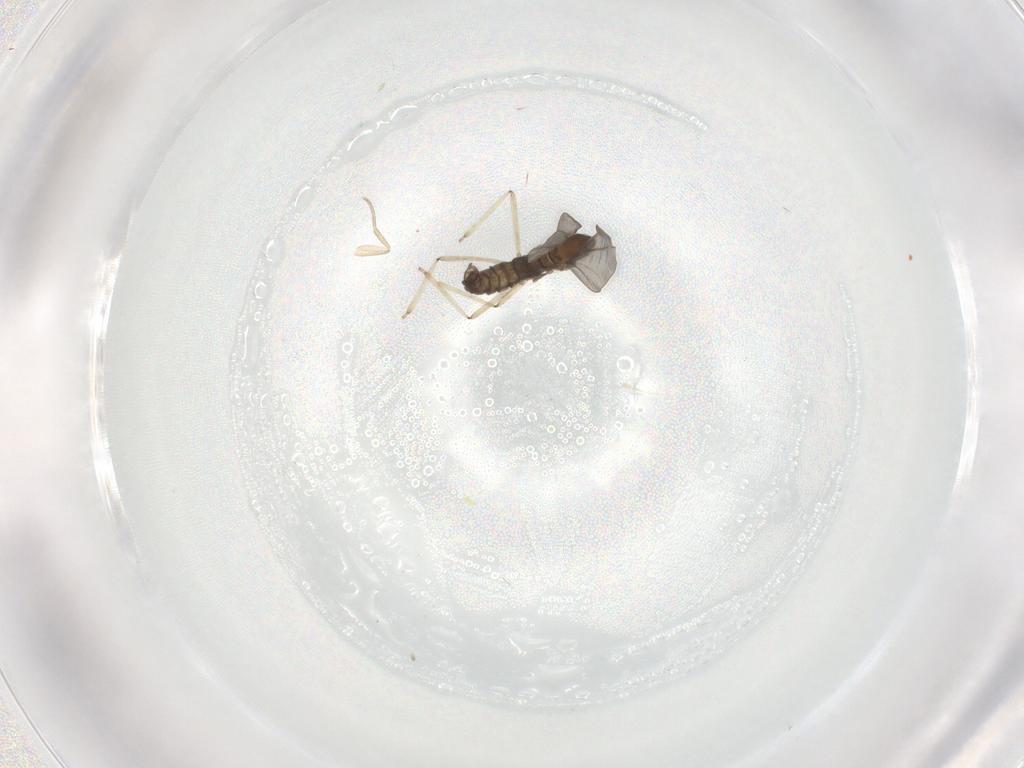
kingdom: Animalia
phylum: Arthropoda
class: Insecta
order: Diptera
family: Cecidomyiidae
